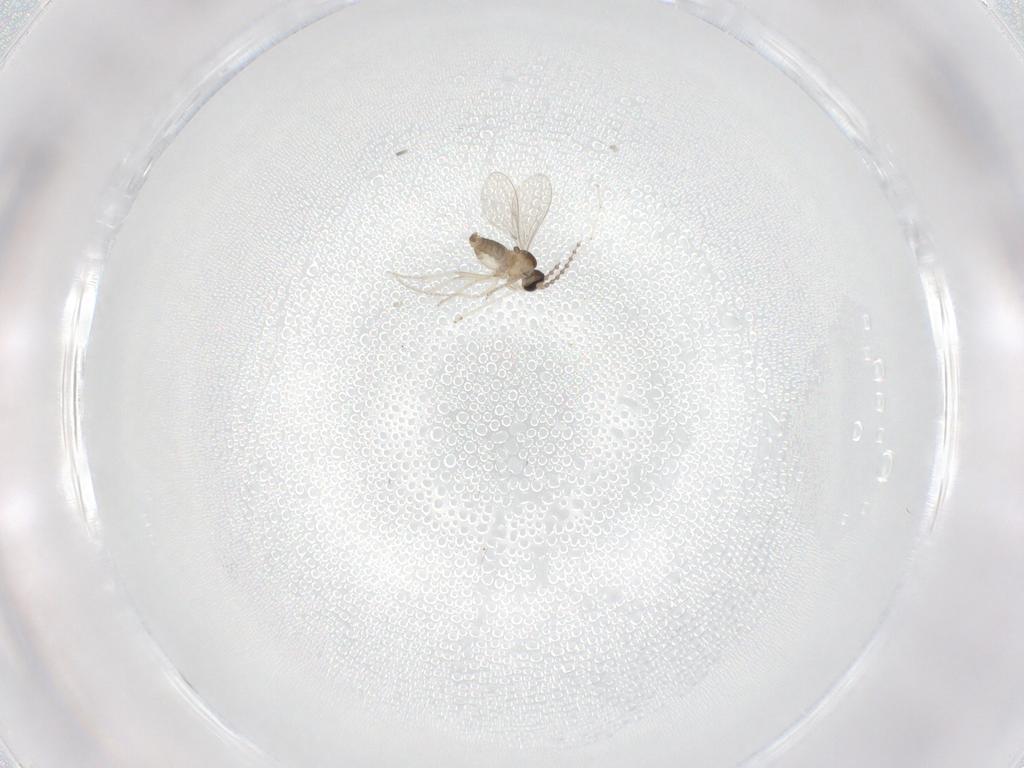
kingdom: Animalia
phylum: Arthropoda
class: Insecta
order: Diptera
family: Cecidomyiidae
